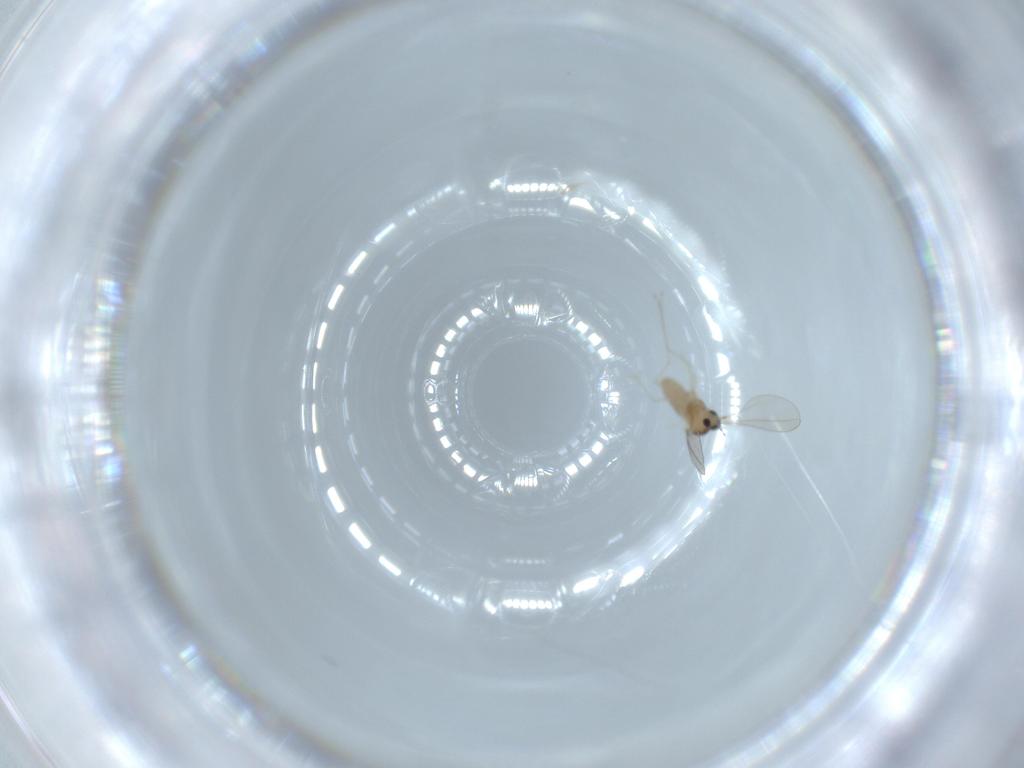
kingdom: Animalia
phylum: Arthropoda
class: Insecta
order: Diptera
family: Cecidomyiidae
